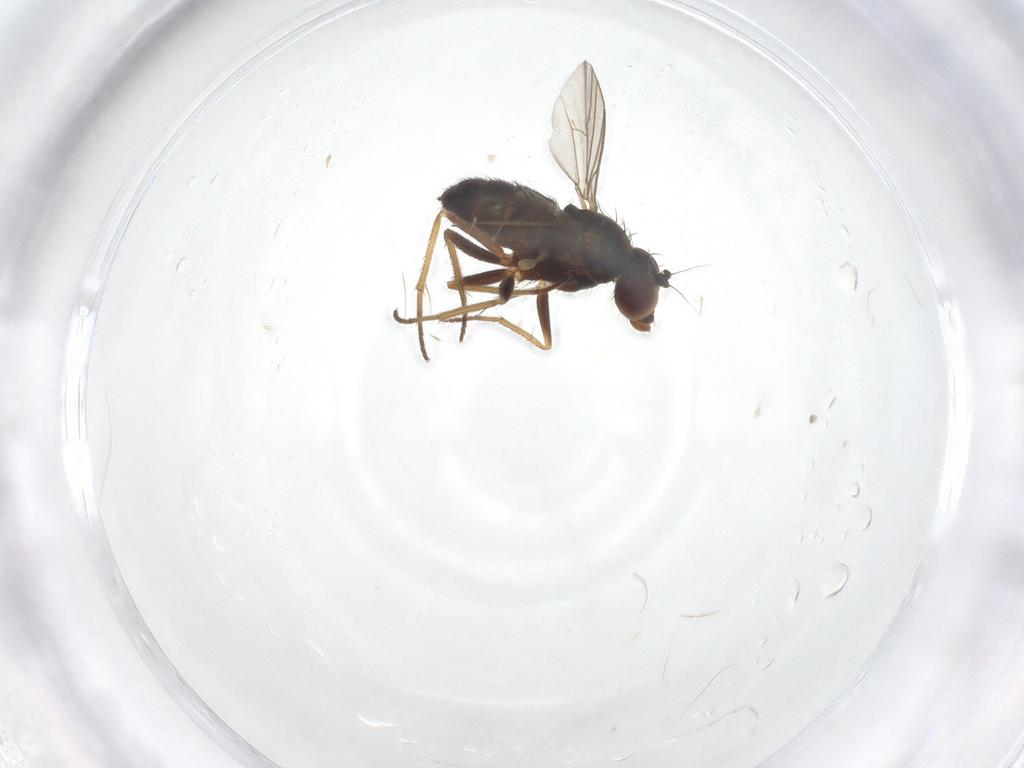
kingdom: Animalia
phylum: Arthropoda
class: Insecta
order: Diptera
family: Dolichopodidae
